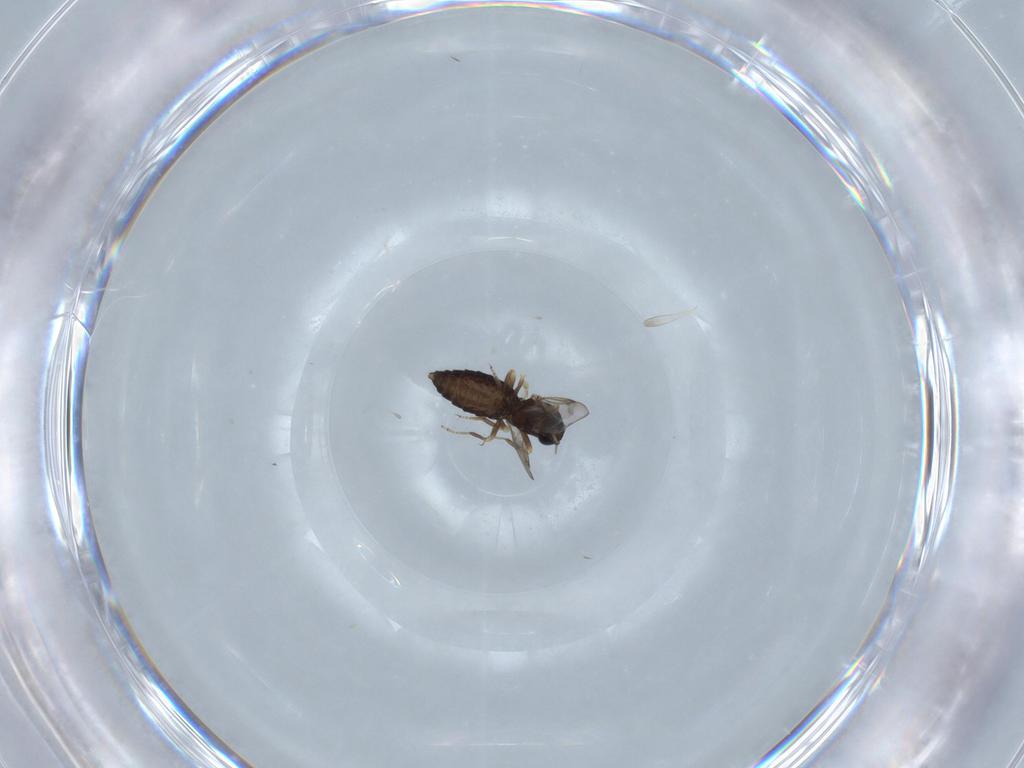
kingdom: Animalia
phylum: Arthropoda
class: Insecta
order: Diptera
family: Ceratopogonidae
